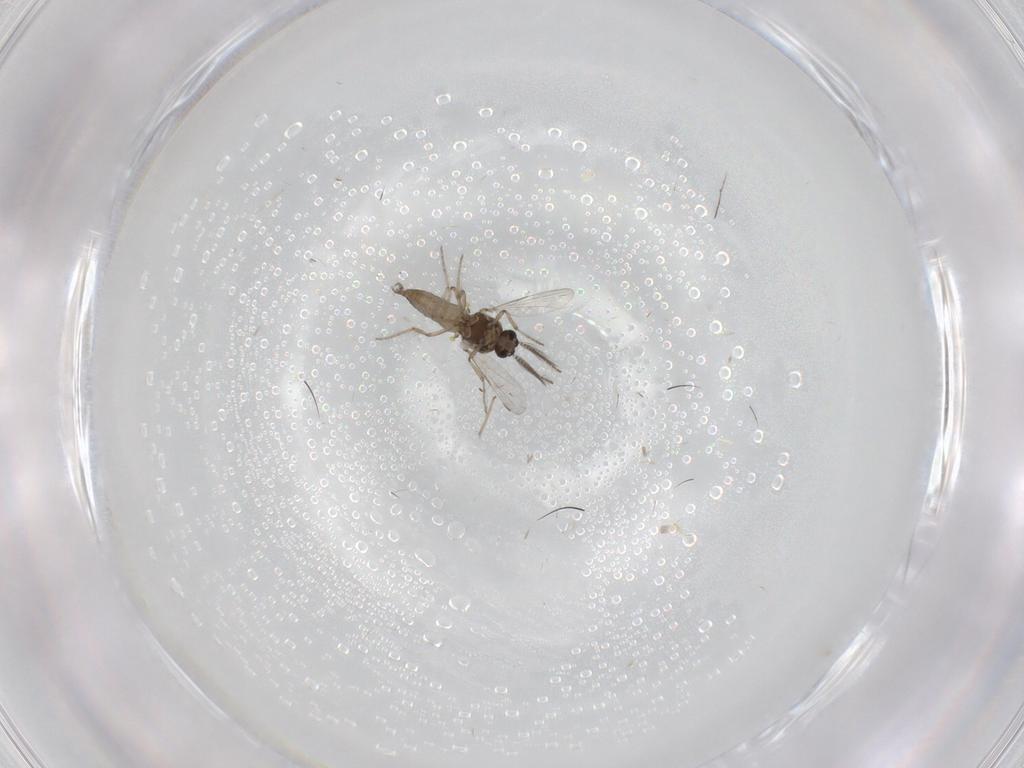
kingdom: Animalia
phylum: Arthropoda
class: Insecta
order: Diptera
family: Ceratopogonidae
